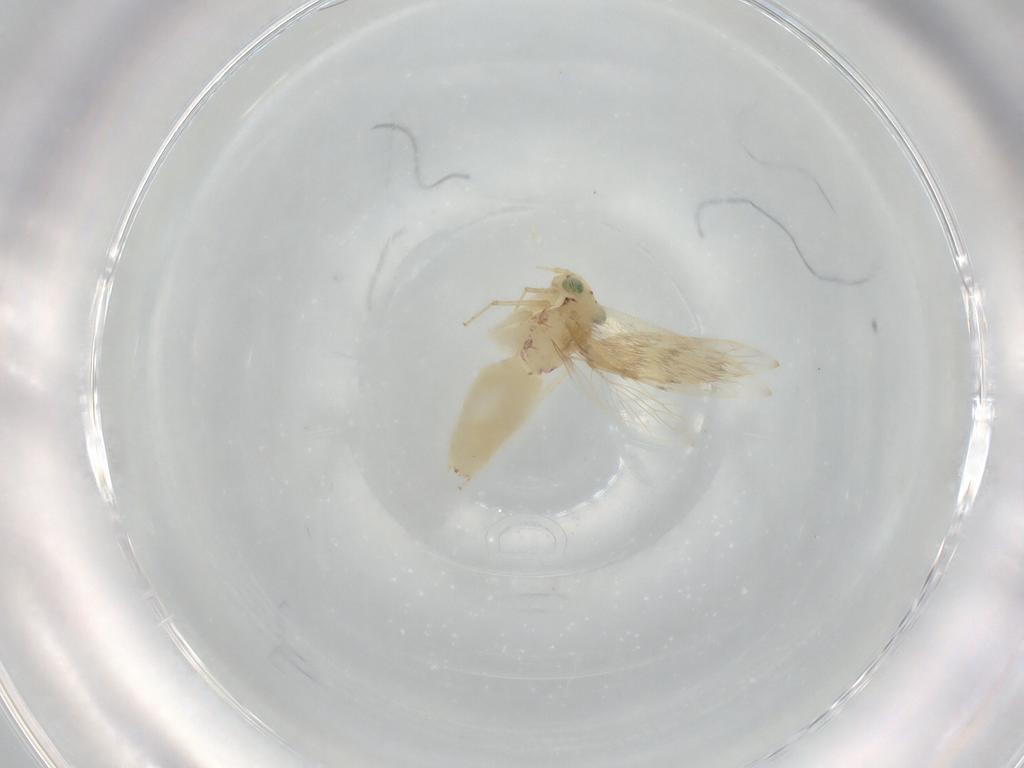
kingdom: Animalia
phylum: Arthropoda
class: Insecta
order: Psocodea
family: Lepidopsocidae
